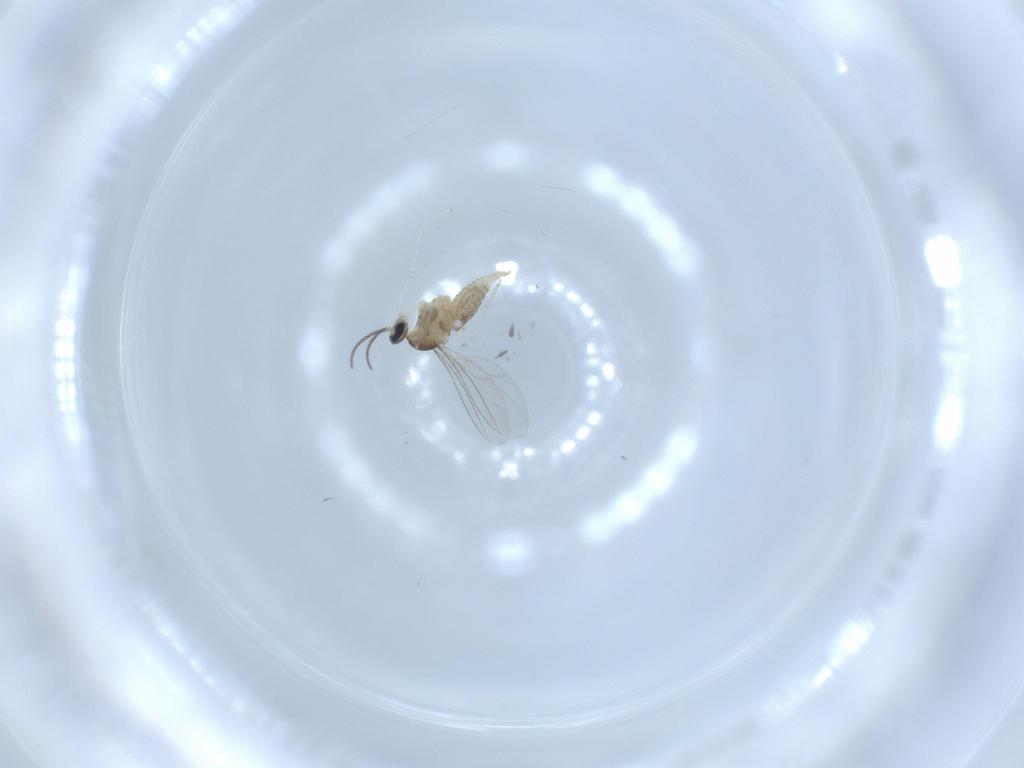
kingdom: Animalia
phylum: Arthropoda
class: Insecta
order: Diptera
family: Cecidomyiidae
